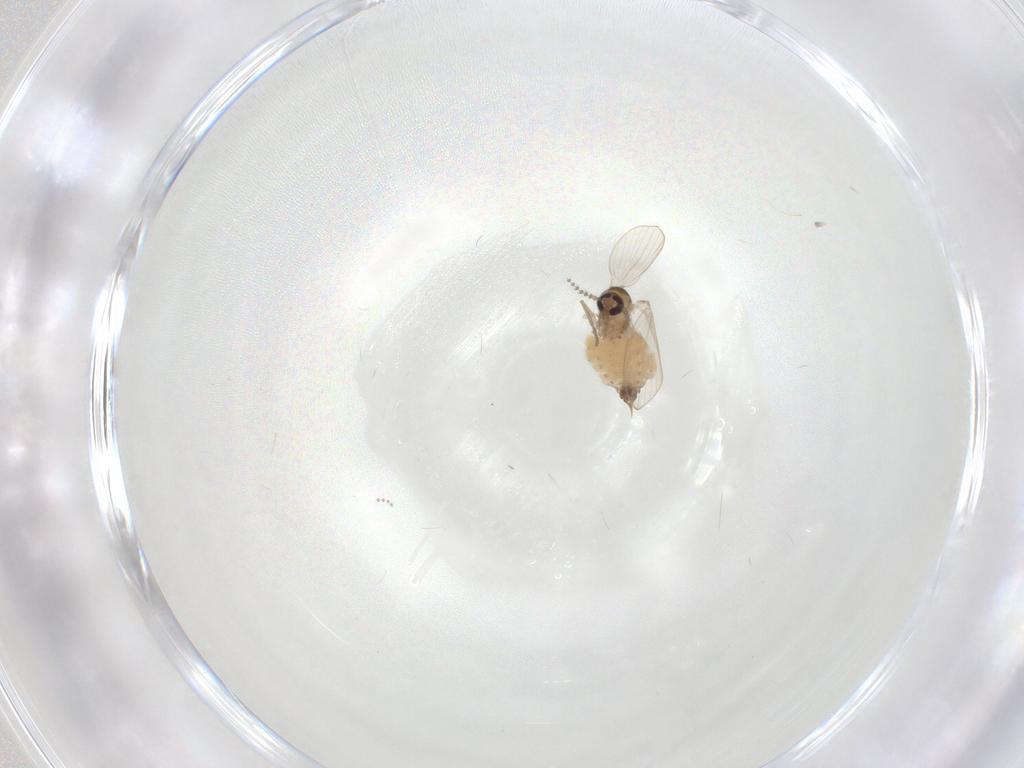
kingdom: Animalia
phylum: Arthropoda
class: Insecta
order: Diptera
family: Psychodidae
